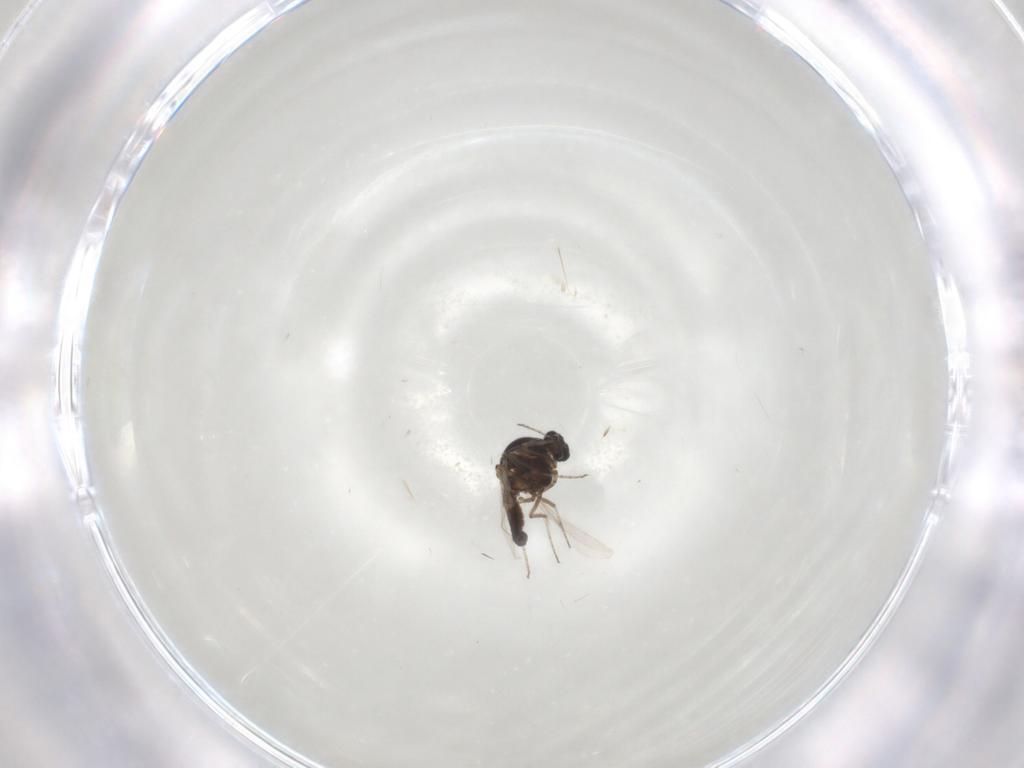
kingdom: Animalia
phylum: Arthropoda
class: Insecta
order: Diptera
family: Ceratopogonidae
